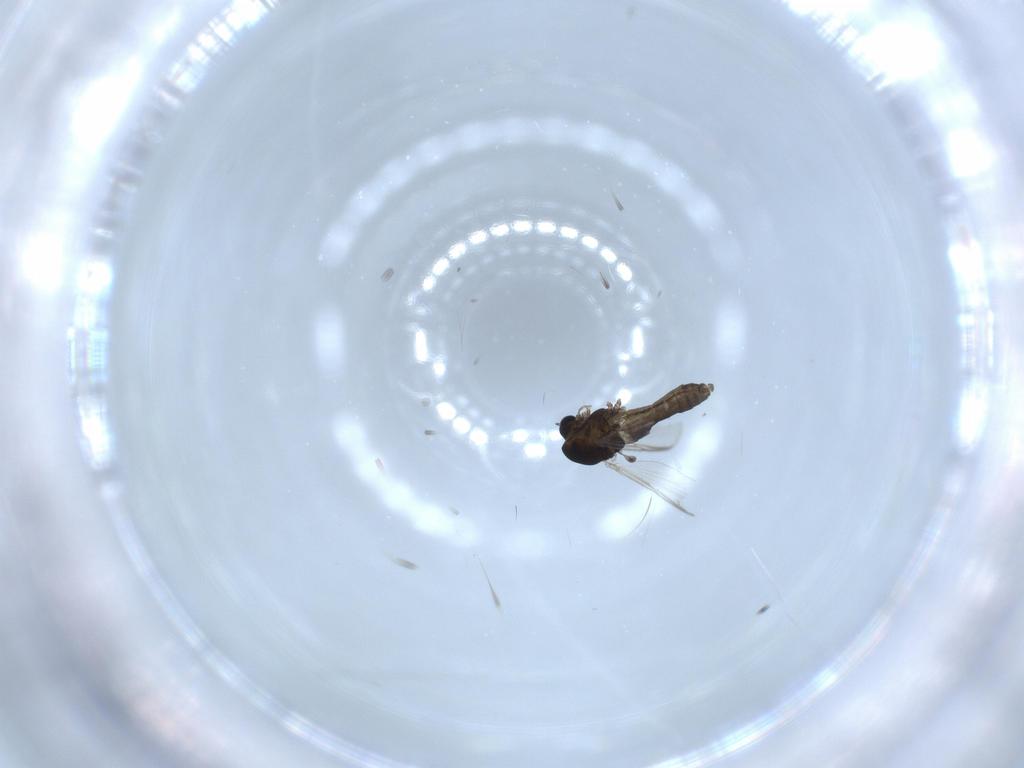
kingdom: Animalia
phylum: Arthropoda
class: Insecta
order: Diptera
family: Chironomidae
